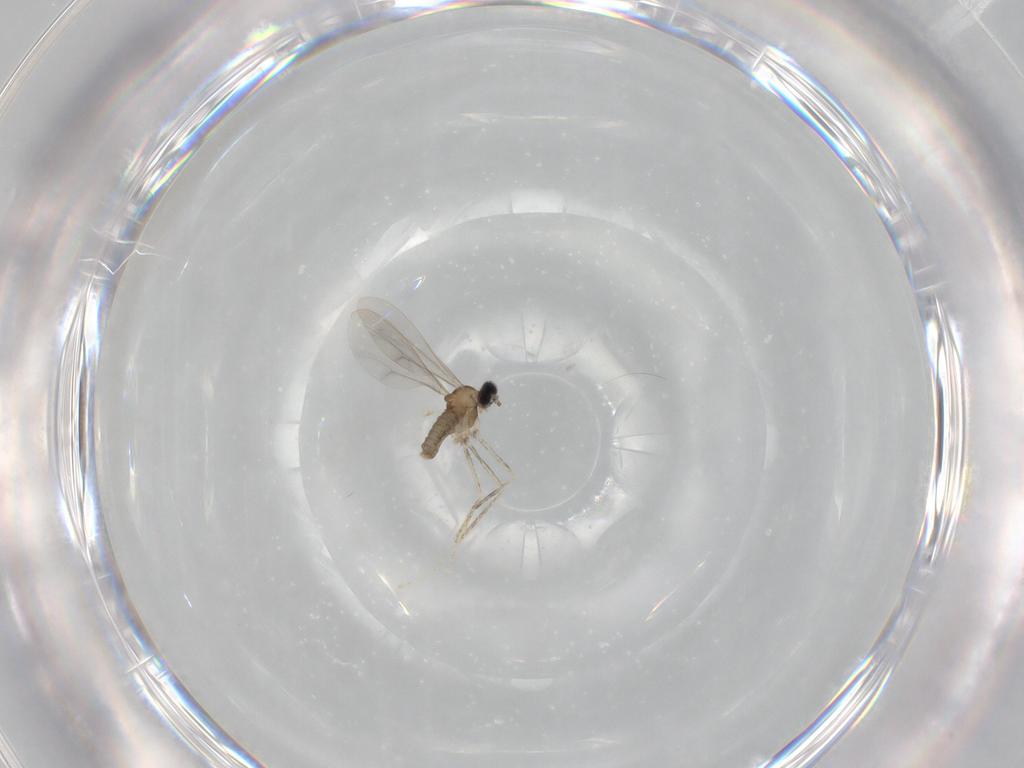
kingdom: Animalia
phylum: Arthropoda
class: Insecta
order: Diptera
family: Cecidomyiidae
